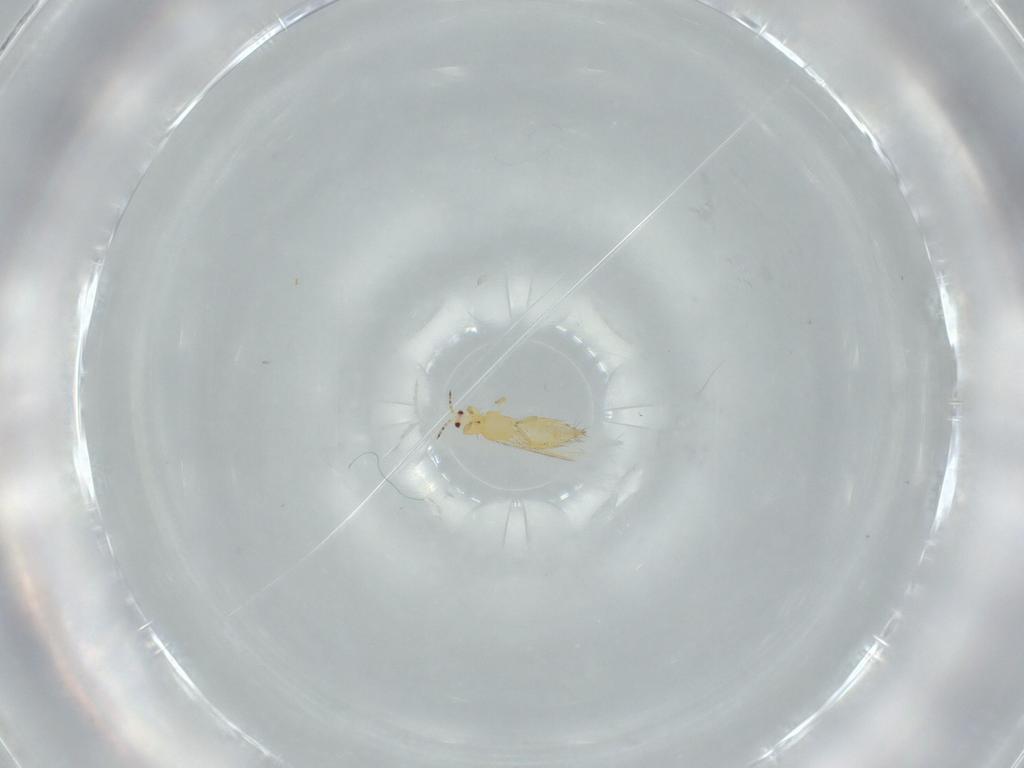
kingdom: Animalia
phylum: Arthropoda
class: Insecta
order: Thysanoptera
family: Thripidae
